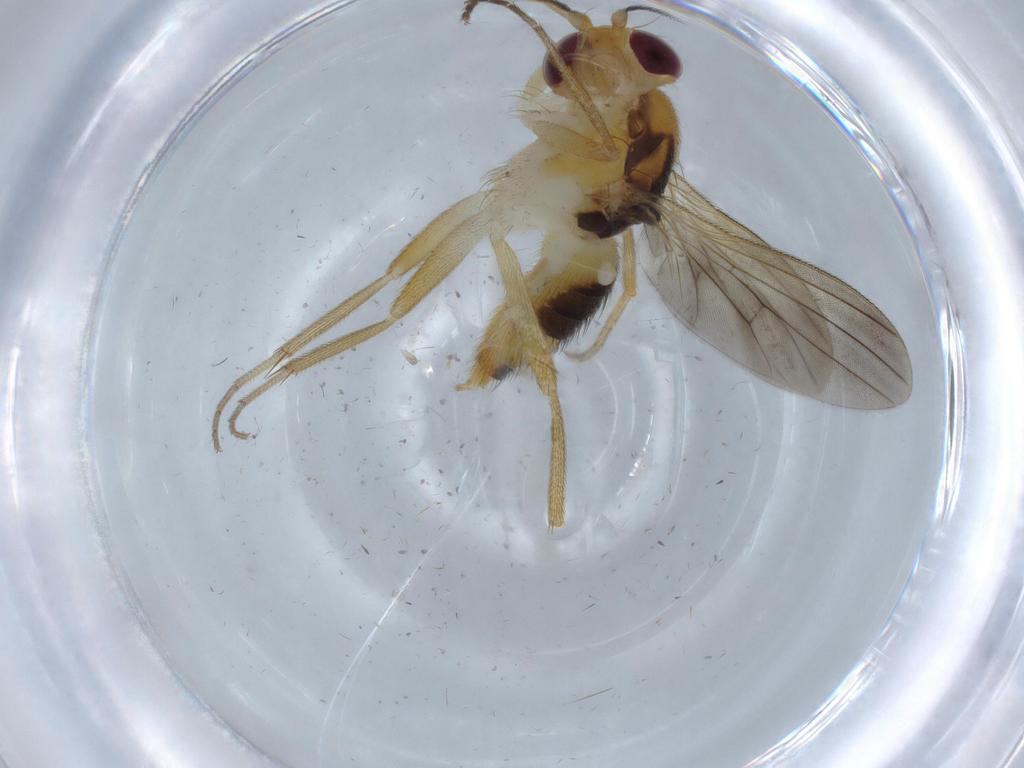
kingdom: Animalia
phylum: Arthropoda
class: Insecta
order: Diptera
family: Clusiidae
